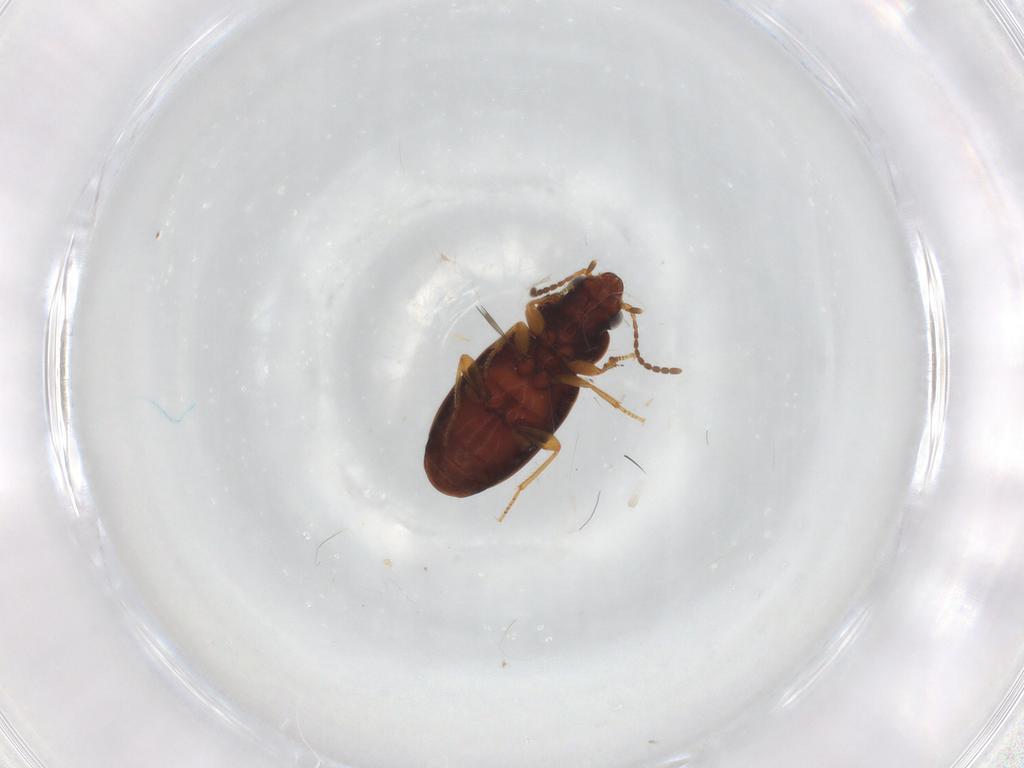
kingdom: Animalia
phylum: Arthropoda
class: Insecta
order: Coleoptera
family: Carabidae
